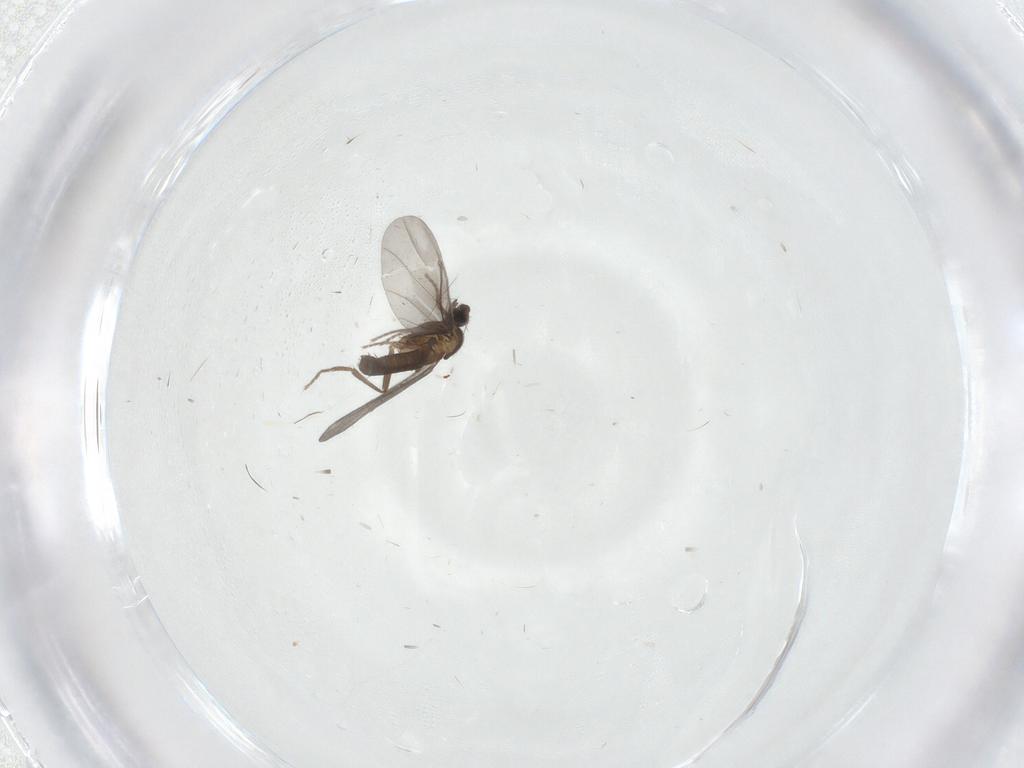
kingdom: Animalia
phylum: Arthropoda
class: Insecta
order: Diptera
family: Phoridae
